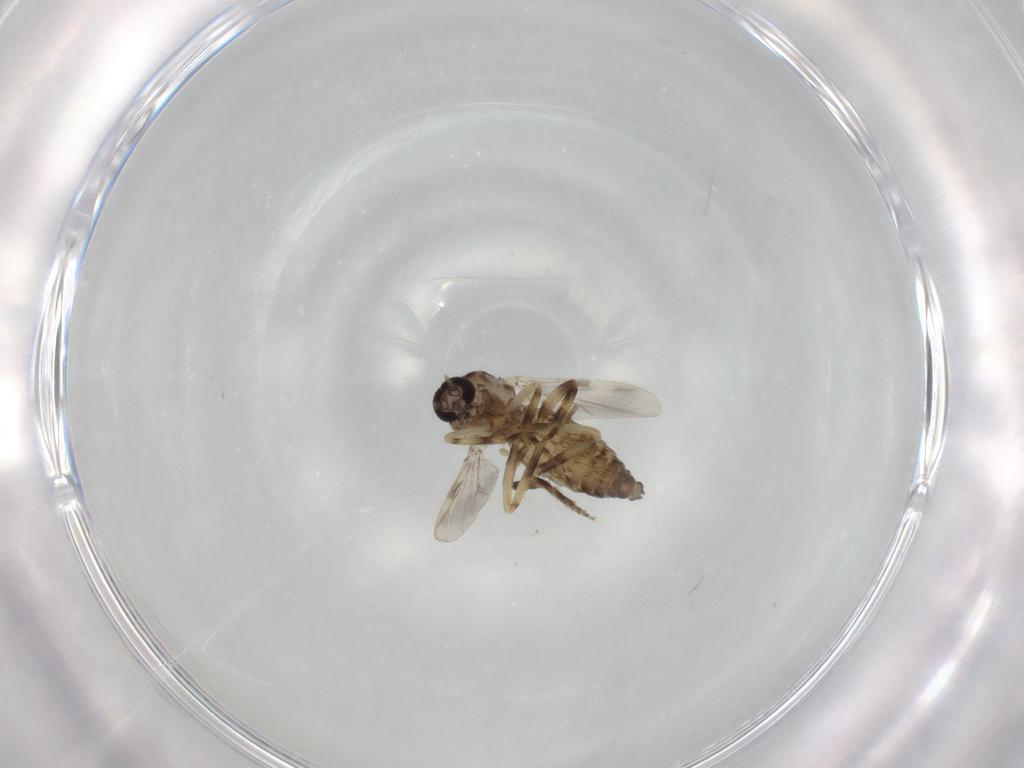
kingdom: Animalia
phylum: Arthropoda
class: Insecta
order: Diptera
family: Ceratopogonidae
